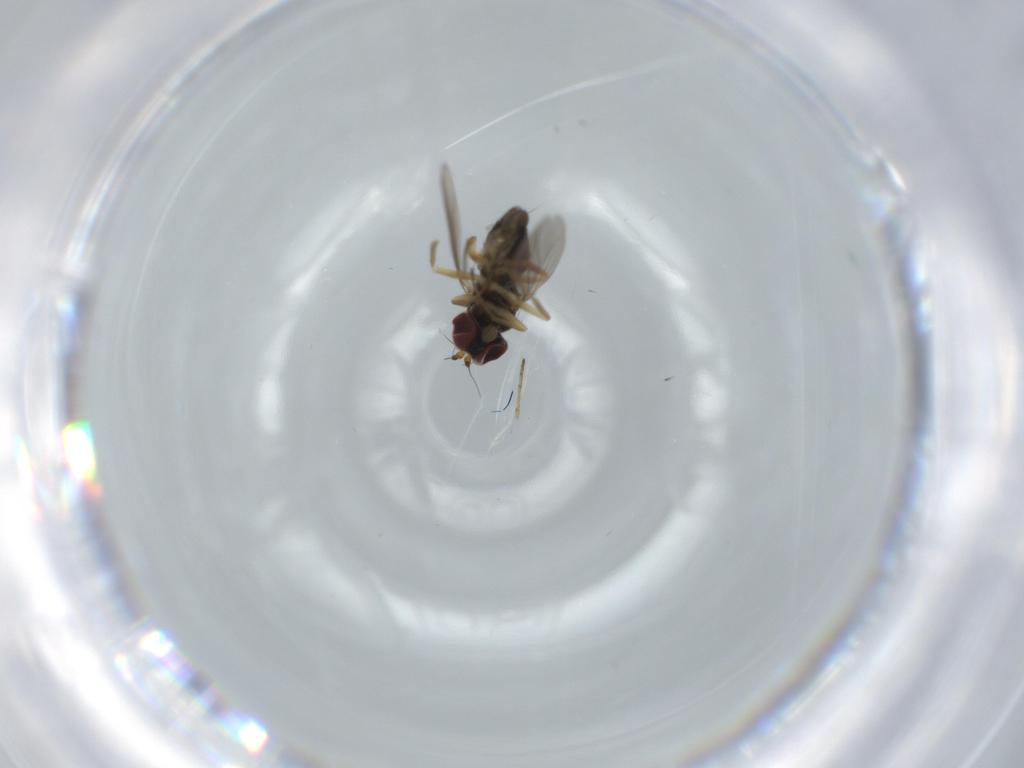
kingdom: Animalia
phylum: Arthropoda
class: Insecta
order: Diptera
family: Dolichopodidae
